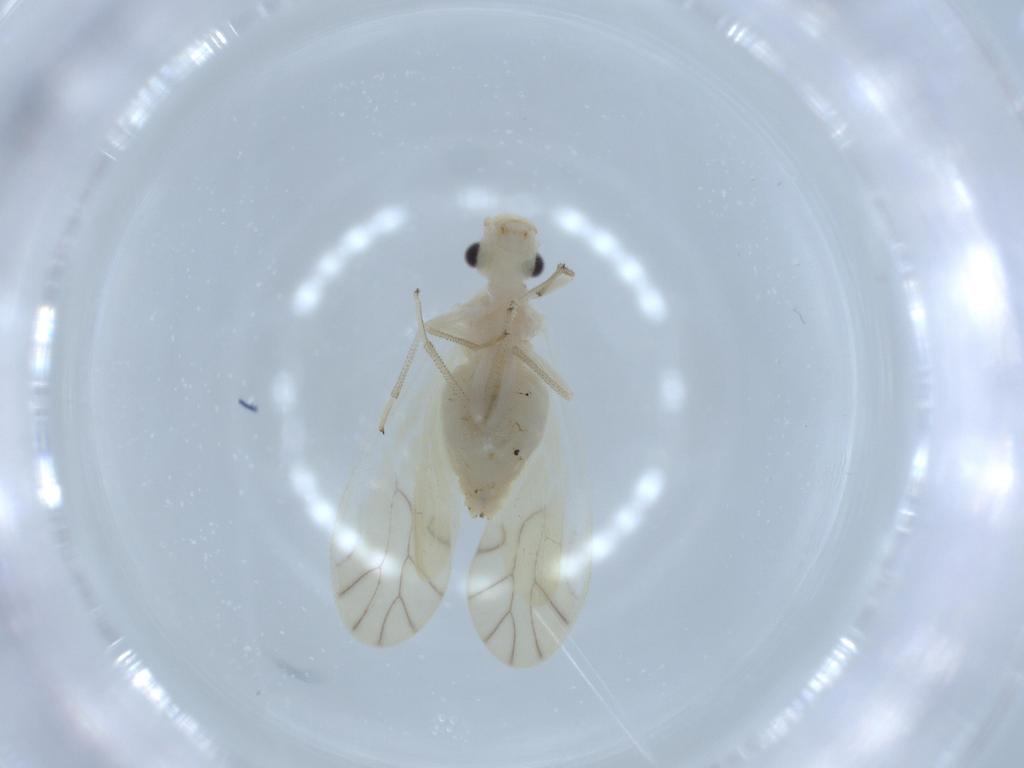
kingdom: Animalia
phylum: Arthropoda
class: Insecta
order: Psocodea
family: Caeciliusidae
